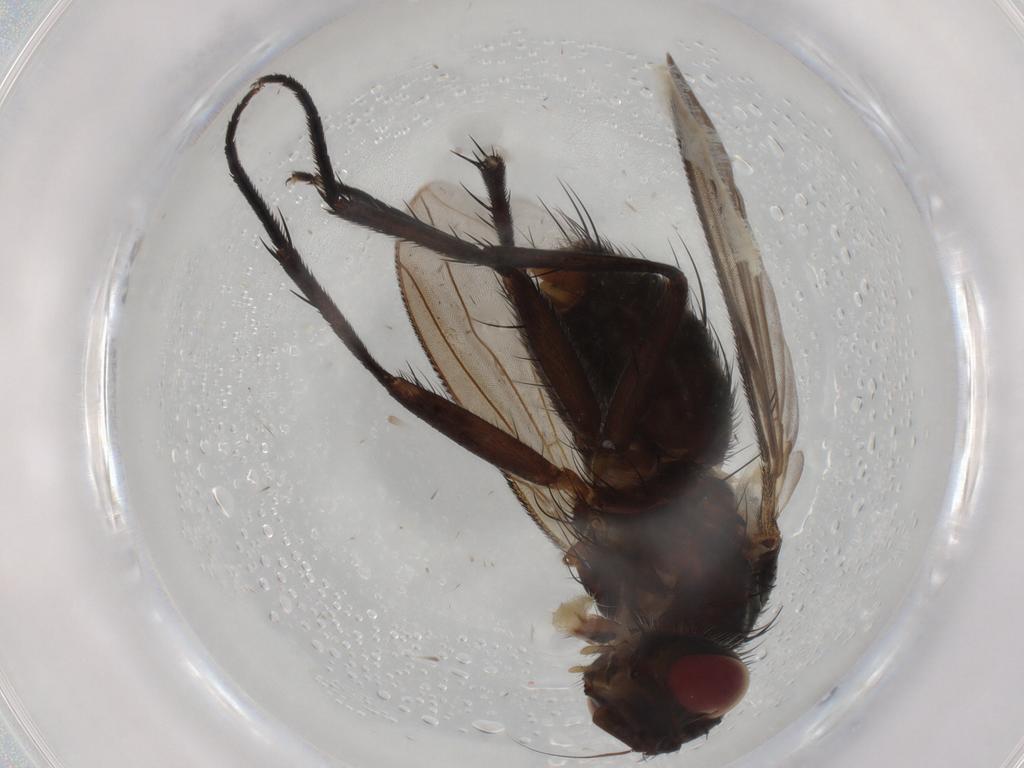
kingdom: Animalia
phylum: Arthropoda
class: Insecta
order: Diptera
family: Tachinidae
